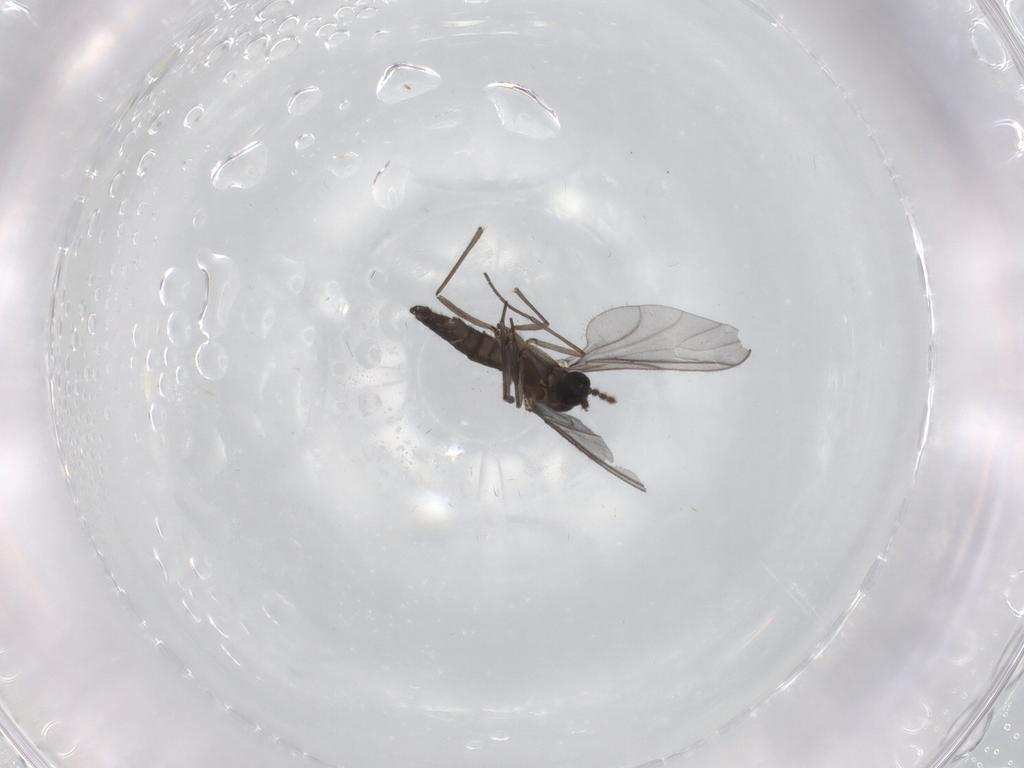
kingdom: Animalia
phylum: Arthropoda
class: Insecta
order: Diptera
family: Sciaridae
